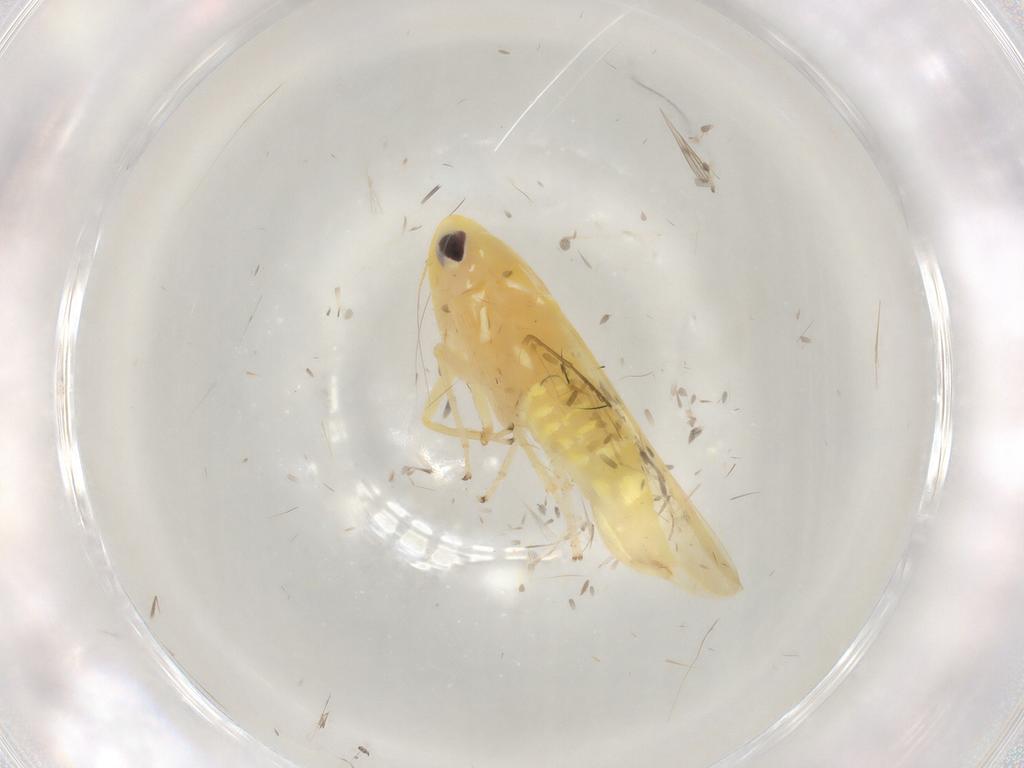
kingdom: Animalia
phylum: Arthropoda
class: Insecta
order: Hemiptera
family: Cicadellidae
